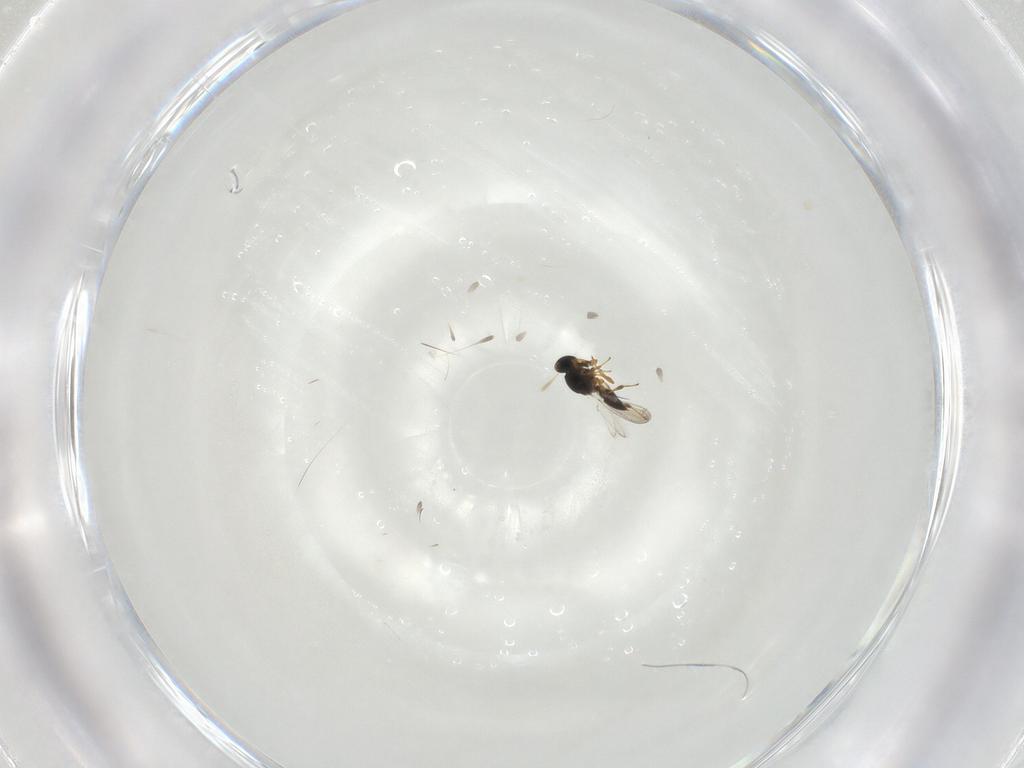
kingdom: Animalia
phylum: Arthropoda
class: Insecta
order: Hymenoptera
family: Platygastridae
